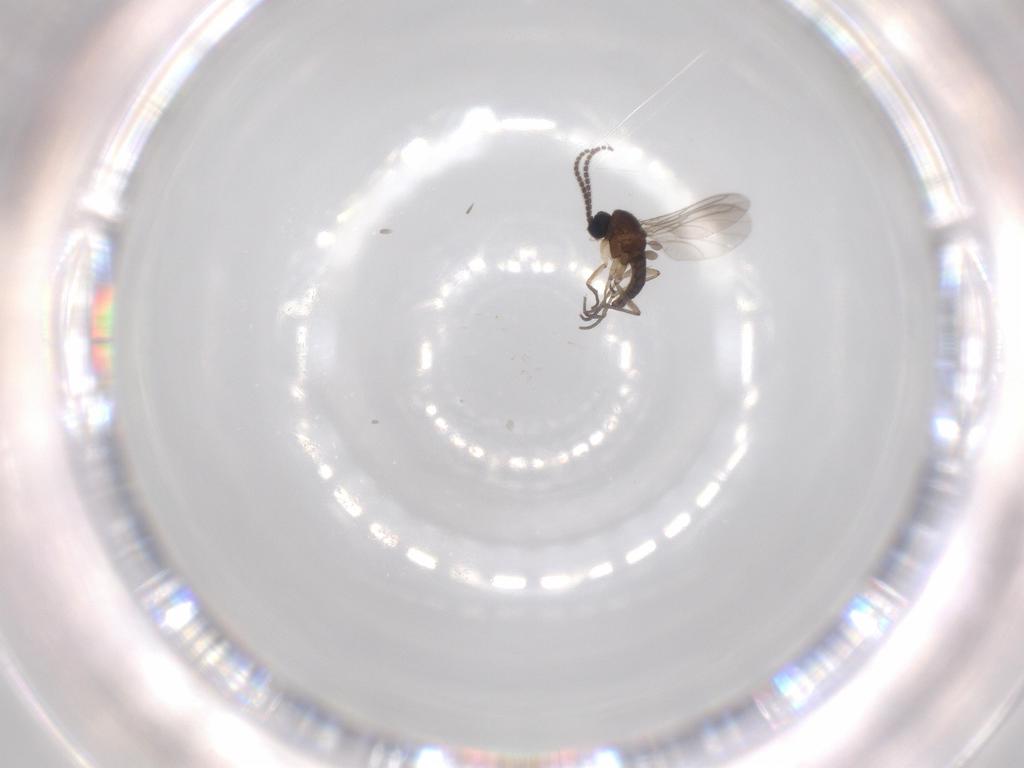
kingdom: Animalia
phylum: Arthropoda
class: Insecta
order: Diptera
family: Sciaridae
